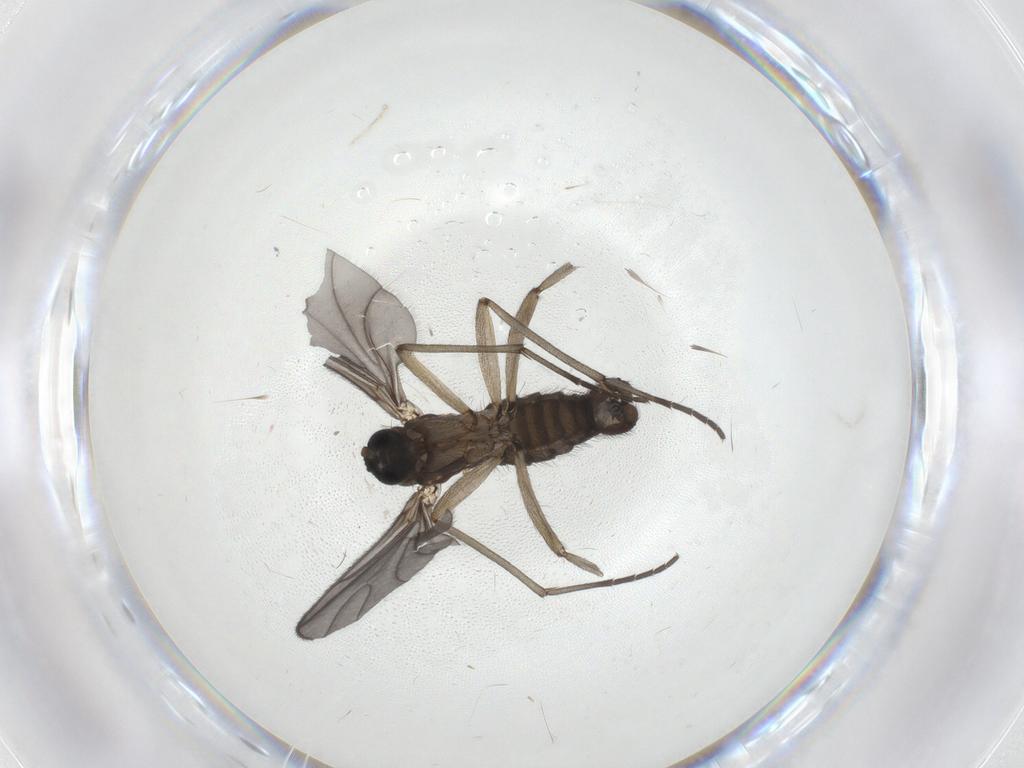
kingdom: Animalia
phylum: Arthropoda
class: Insecta
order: Diptera
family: Sciaridae
